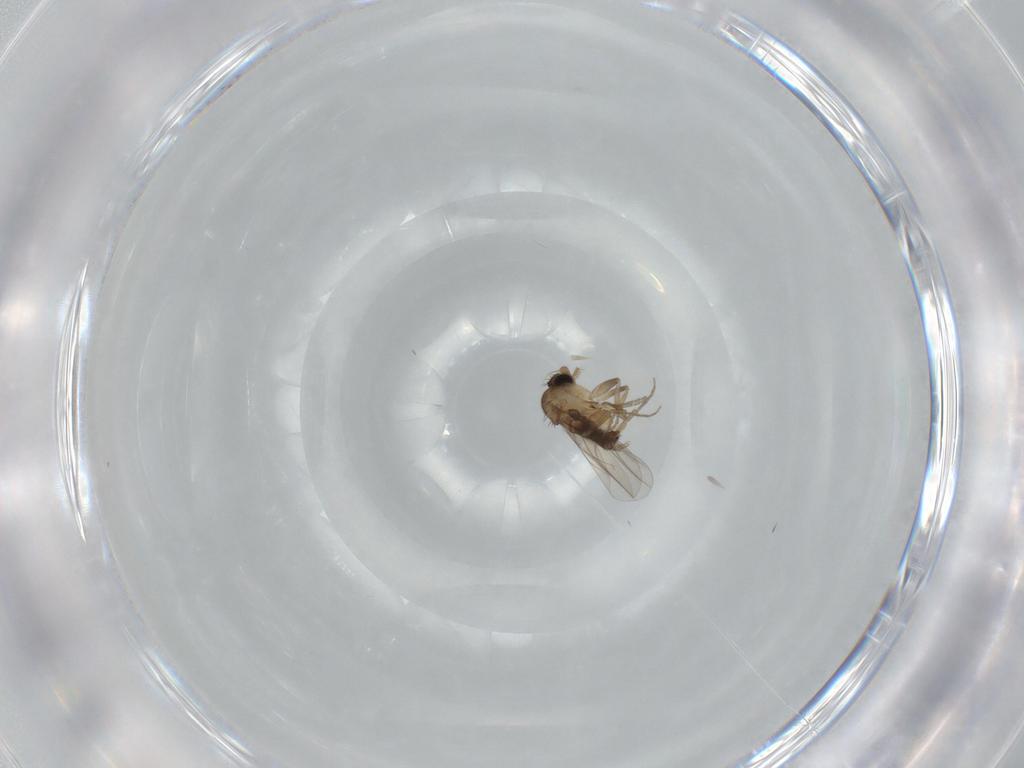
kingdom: Animalia
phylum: Arthropoda
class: Insecta
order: Diptera
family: Phoridae
